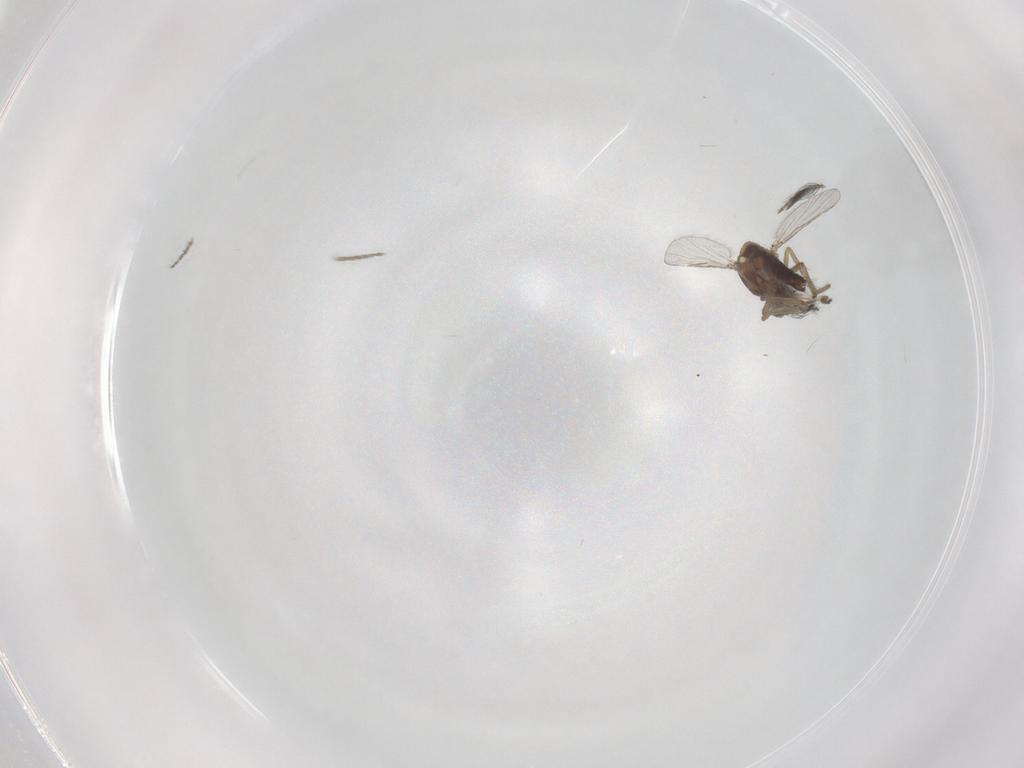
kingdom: Animalia
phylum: Arthropoda
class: Insecta
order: Diptera
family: Ceratopogonidae
